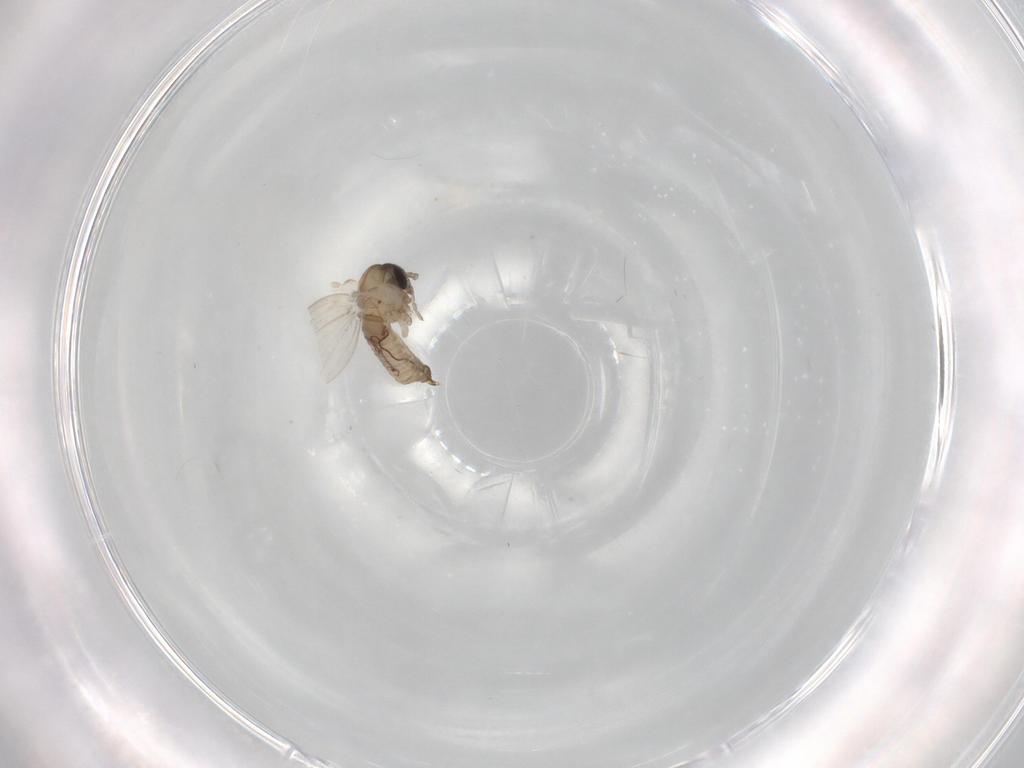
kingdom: Animalia
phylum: Arthropoda
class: Insecta
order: Diptera
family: Psychodidae
